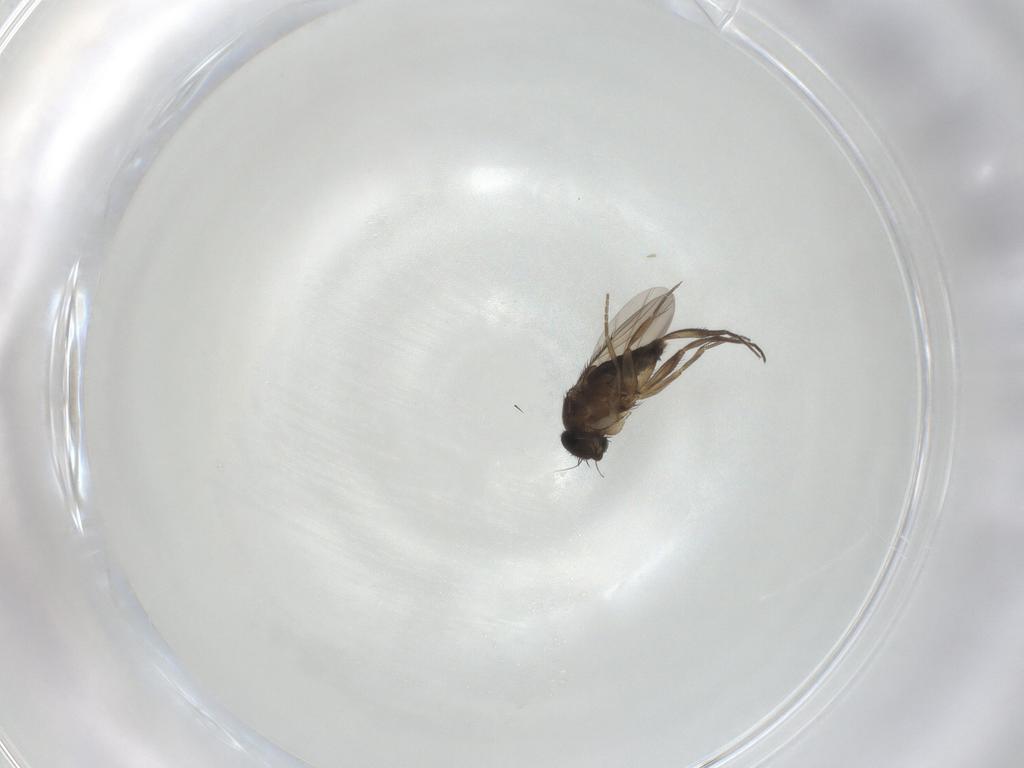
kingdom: Animalia
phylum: Arthropoda
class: Insecta
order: Diptera
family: Phoridae
